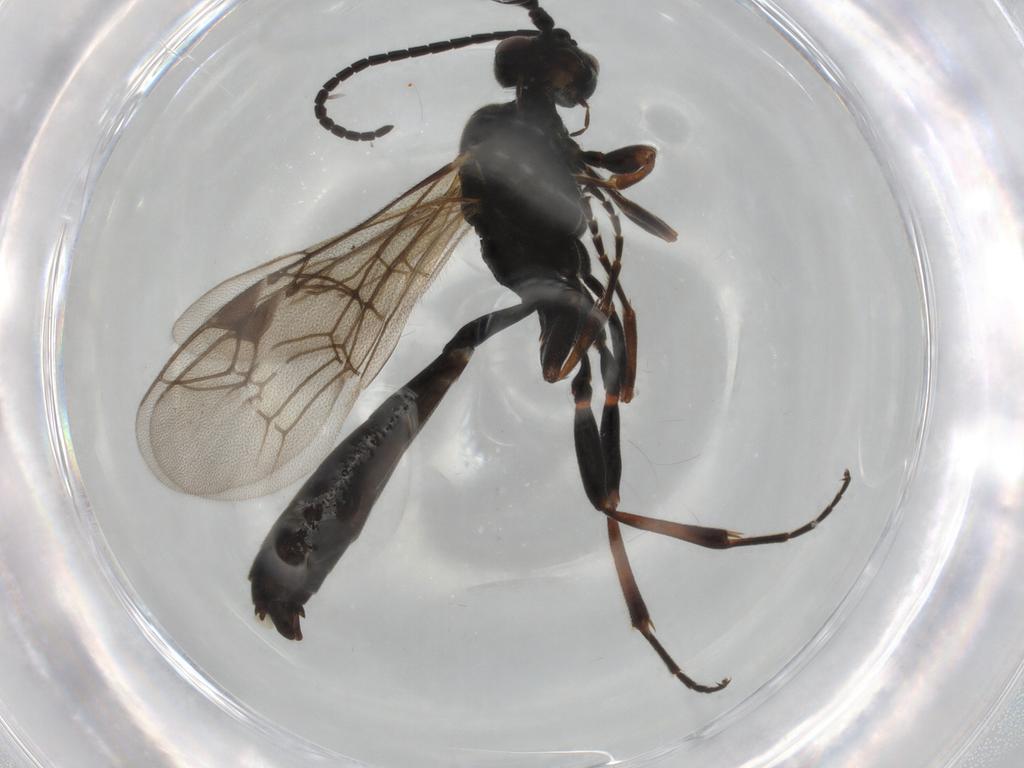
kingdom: Animalia
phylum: Arthropoda
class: Insecta
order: Hymenoptera
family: Ichneumonidae
